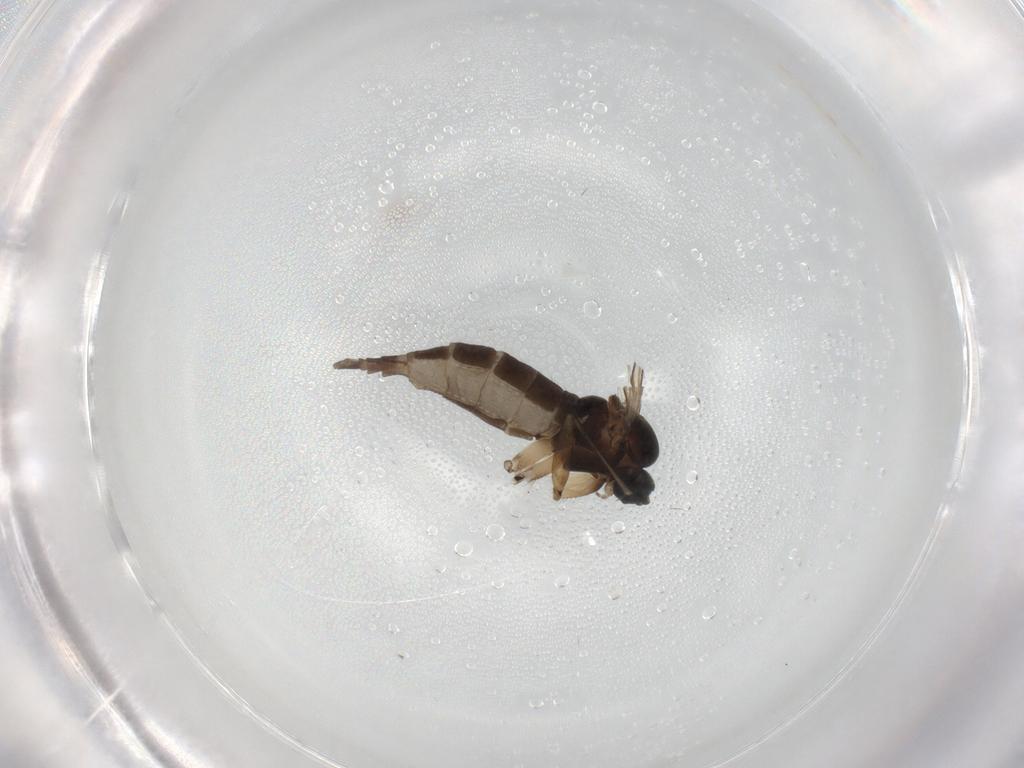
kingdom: Animalia
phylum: Arthropoda
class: Insecta
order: Diptera
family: Sciaridae
